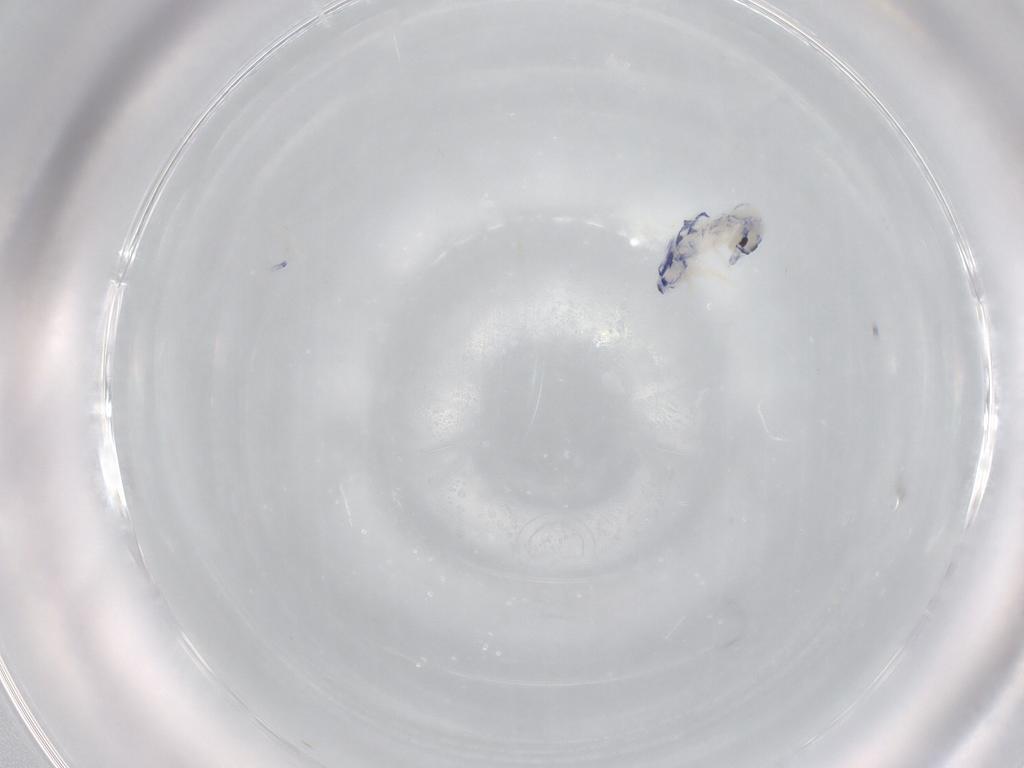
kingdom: Animalia
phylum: Arthropoda
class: Collembola
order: Entomobryomorpha
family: Entomobryidae
